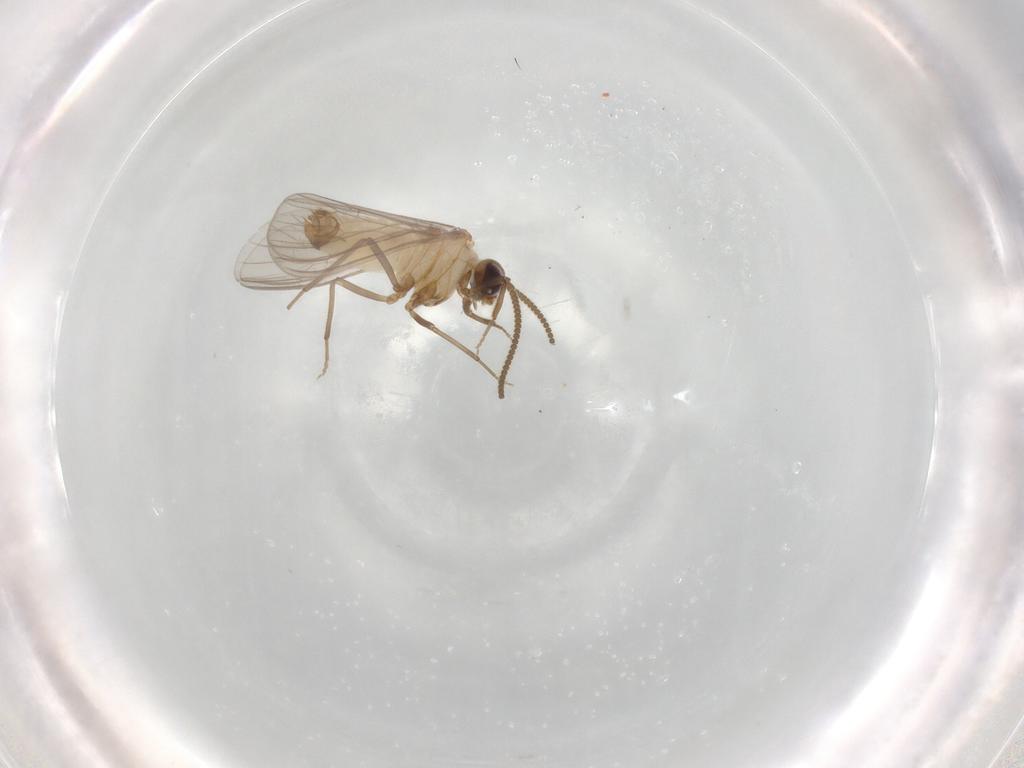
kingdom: Animalia
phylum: Arthropoda
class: Insecta
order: Neuroptera
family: Coniopterygidae
